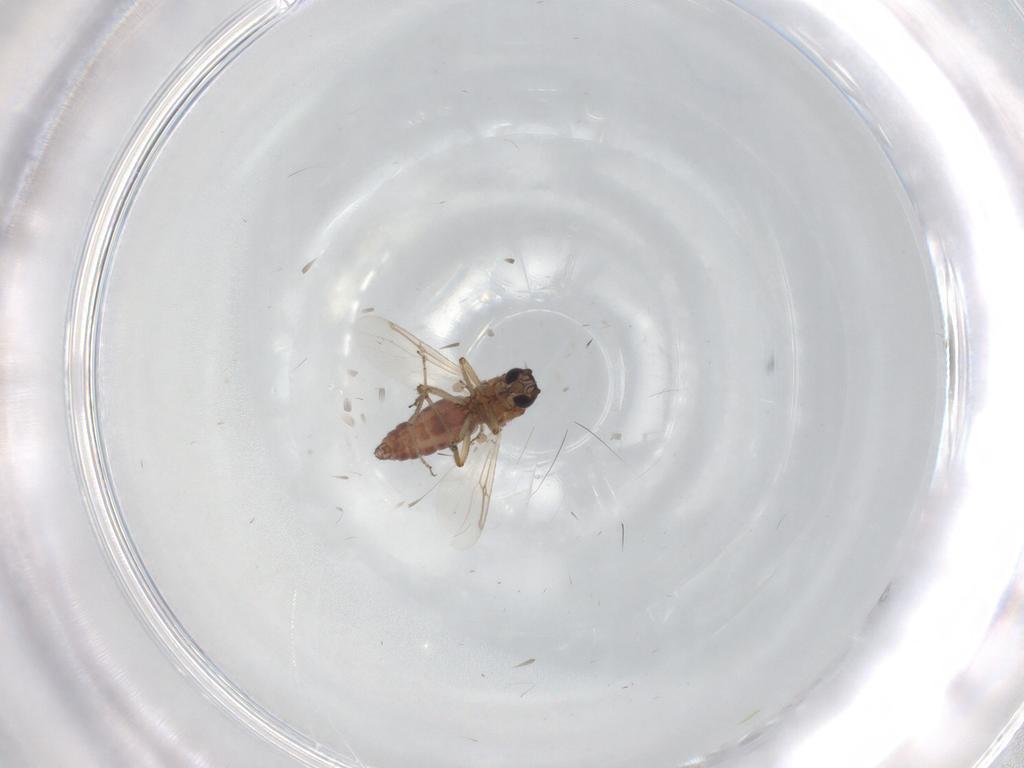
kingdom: Animalia
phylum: Arthropoda
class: Insecta
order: Diptera
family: Ceratopogonidae
